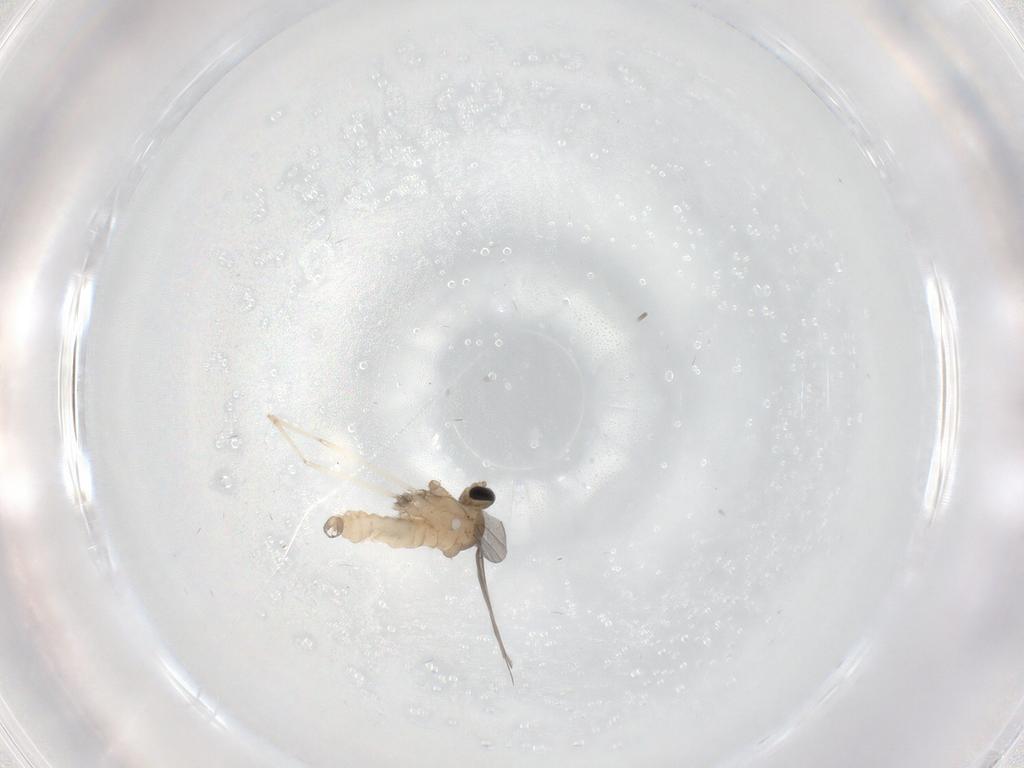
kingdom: Animalia
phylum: Arthropoda
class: Insecta
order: Diptera
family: Cecidomyiidae
